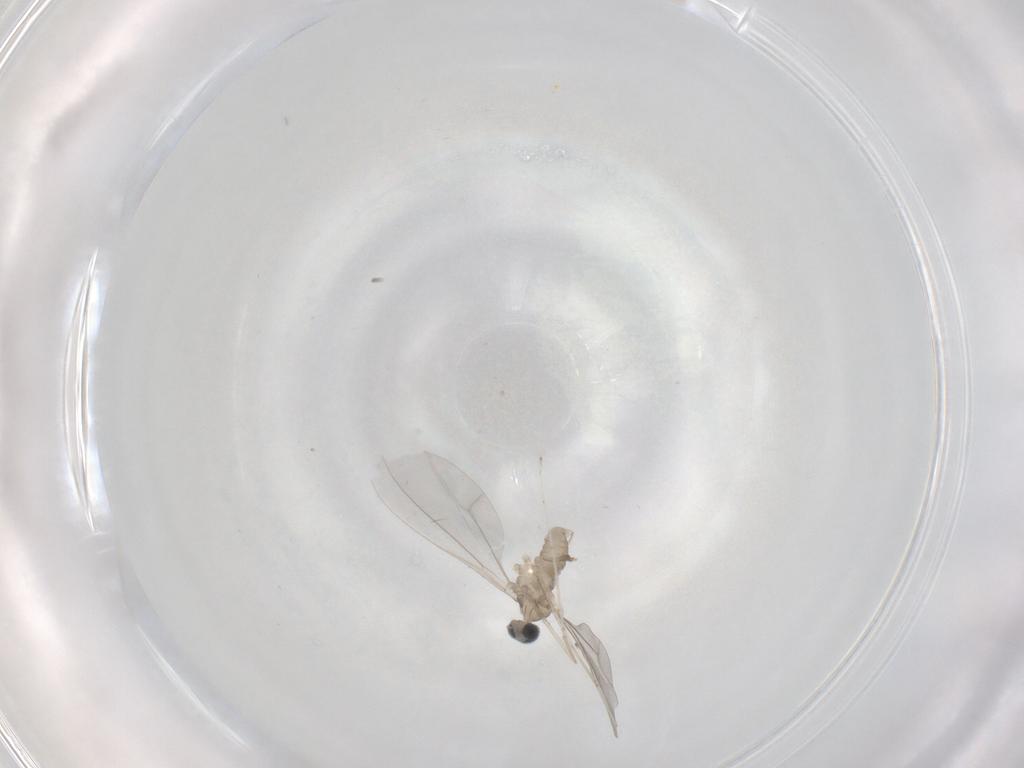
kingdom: Animalia
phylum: Arthropoda
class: Insecta
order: Diptera
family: Cecidomyiidae
